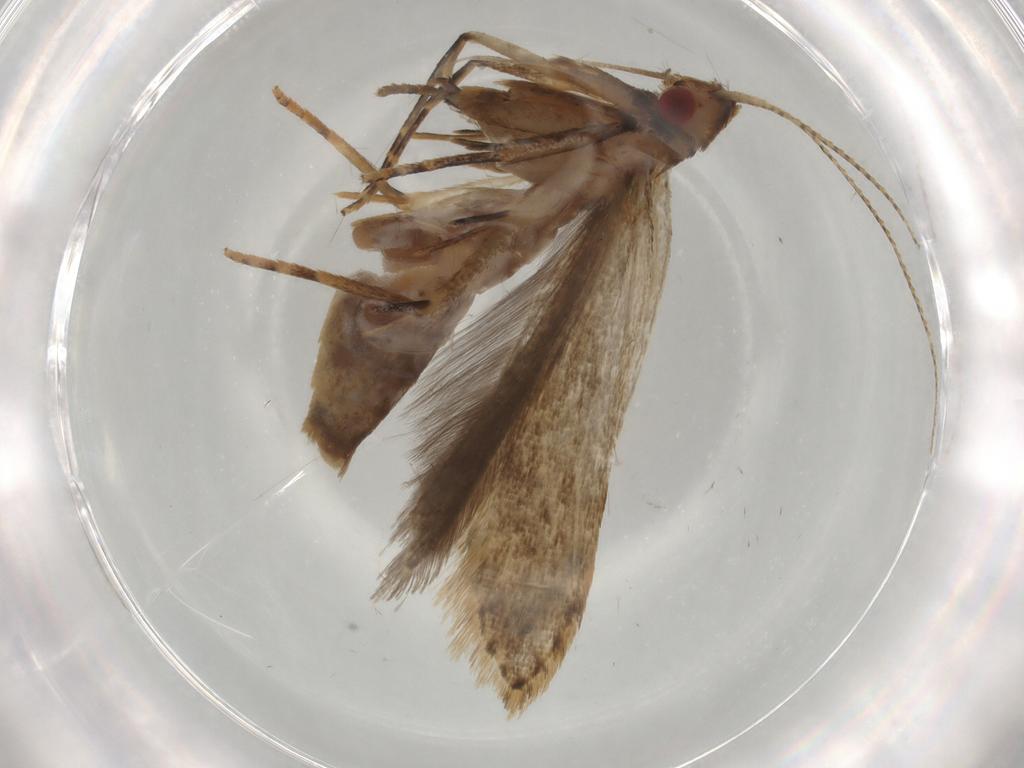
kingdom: Animalia
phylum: Arthropoda
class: Insecta
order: Lepidoptera
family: Gelechiidae
